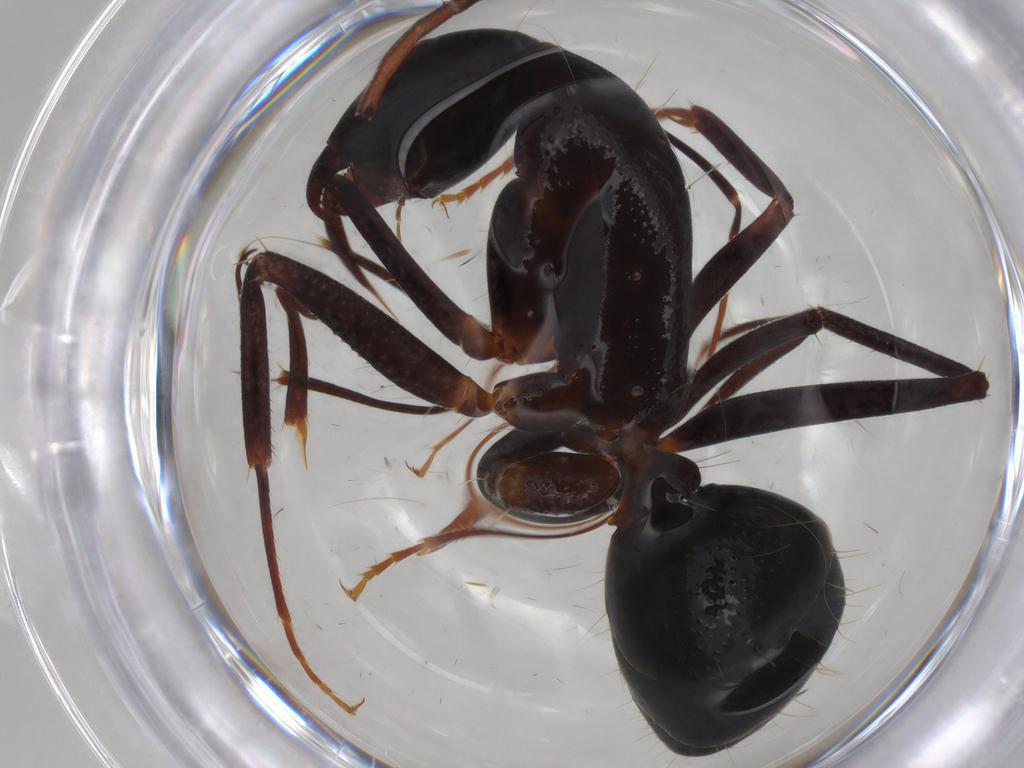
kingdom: Animalia
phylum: Arthropoda
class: Insecta
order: Hymenoptera
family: Formicidae
